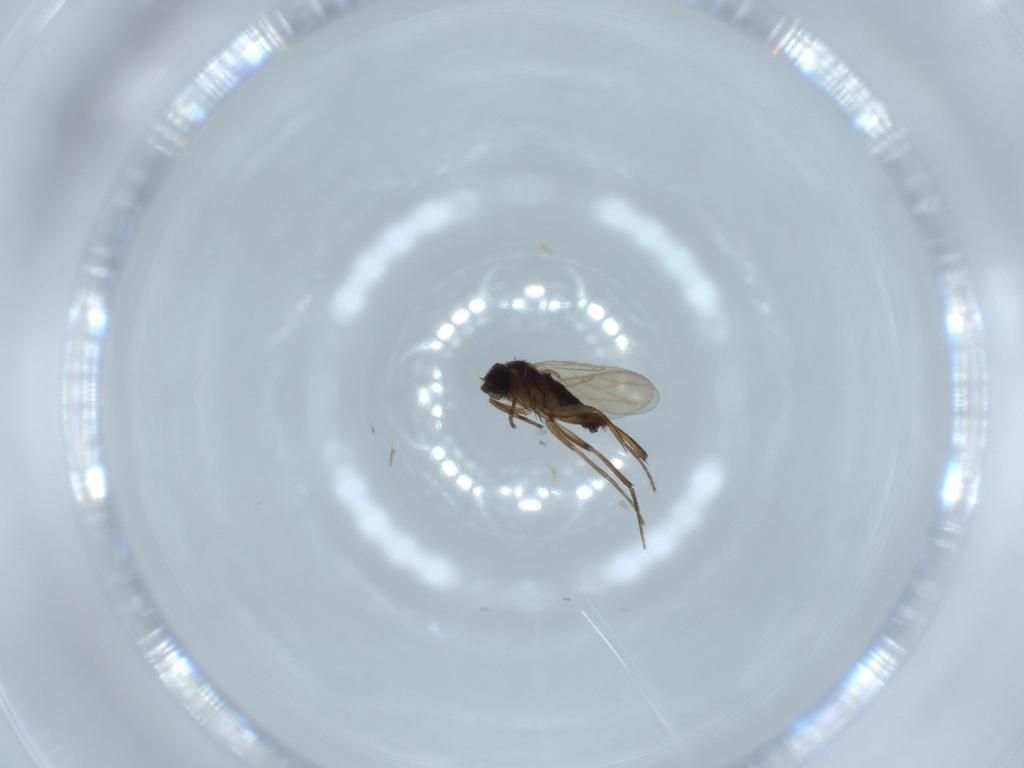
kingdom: Animalia
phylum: Arthropoda
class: Insecta
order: Diptera
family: Phoridae
